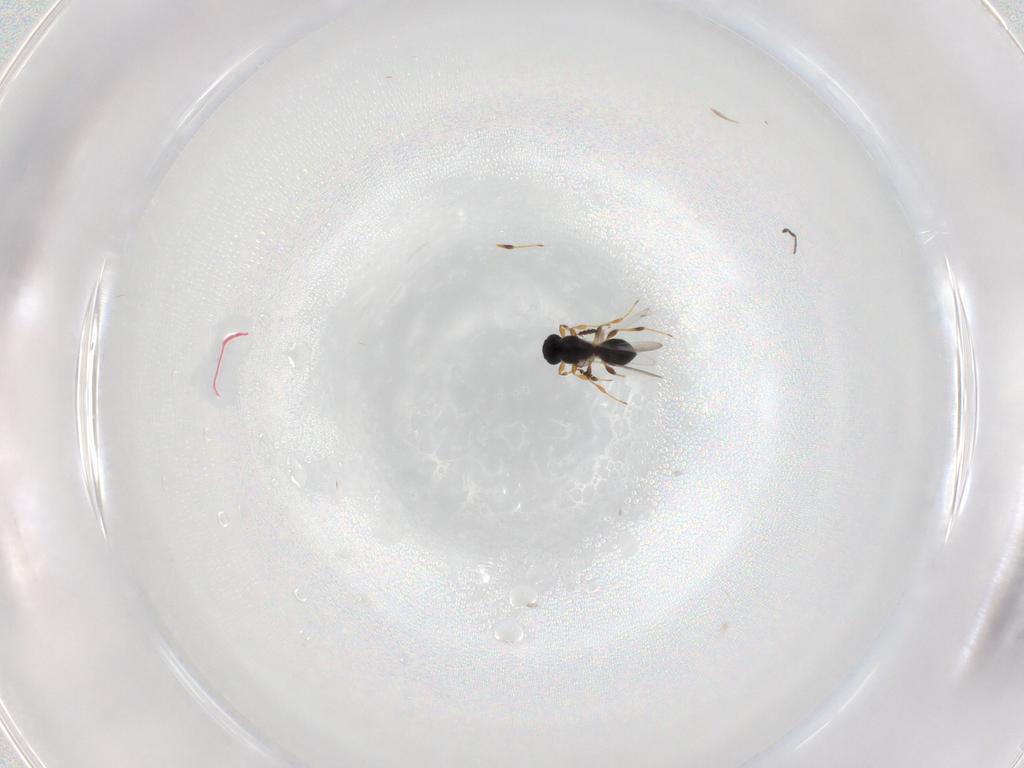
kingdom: Animalia
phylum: Arthropoda
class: Insecta
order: Hymenoptera
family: Platygastridae
